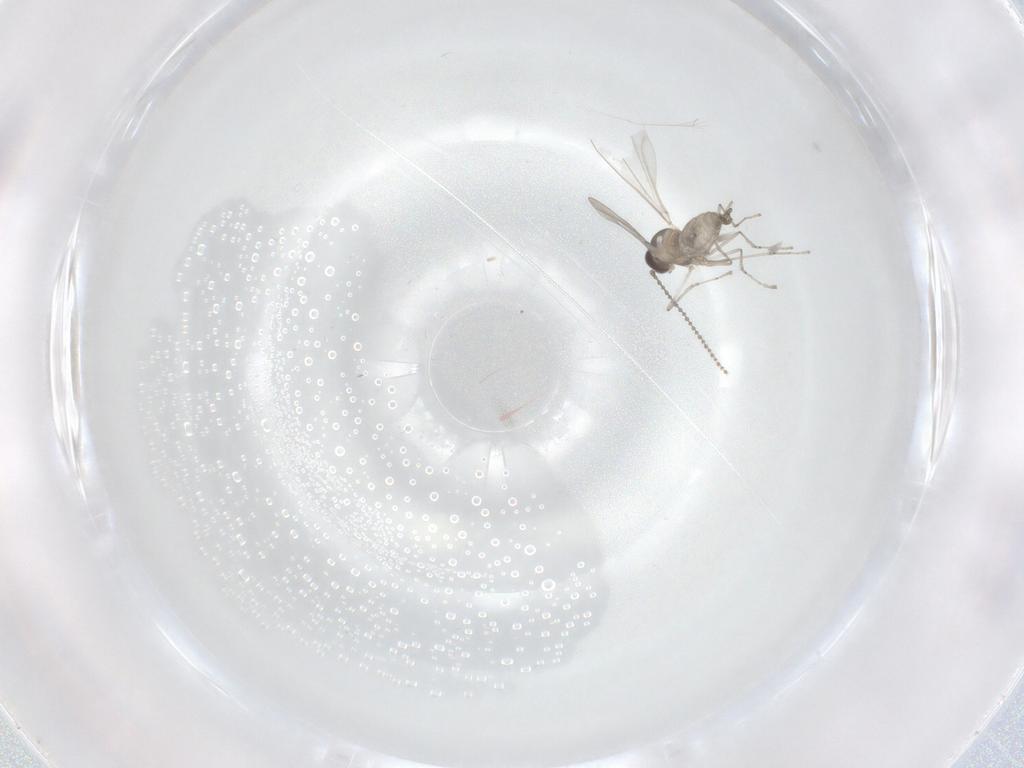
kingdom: Animalia
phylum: Arthropoda
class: Insecta
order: Diptera
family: Cecidomyiidae
